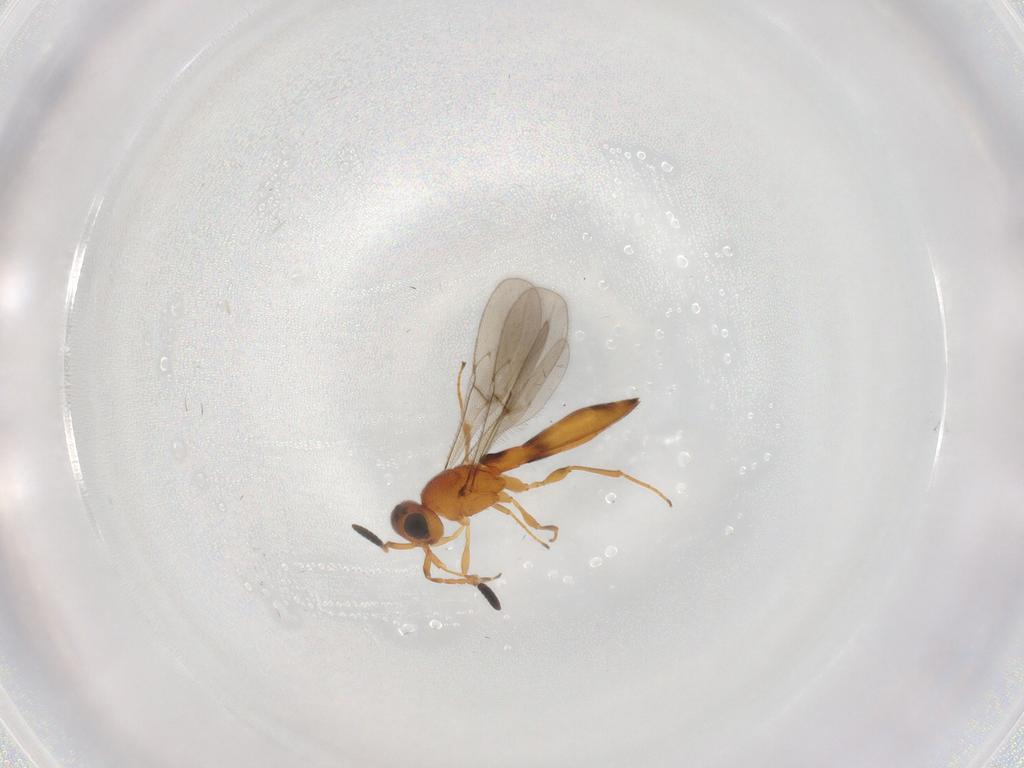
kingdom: Animalia
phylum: Arthropoda
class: Insecta
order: Hymenoptera
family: Scelionidae
